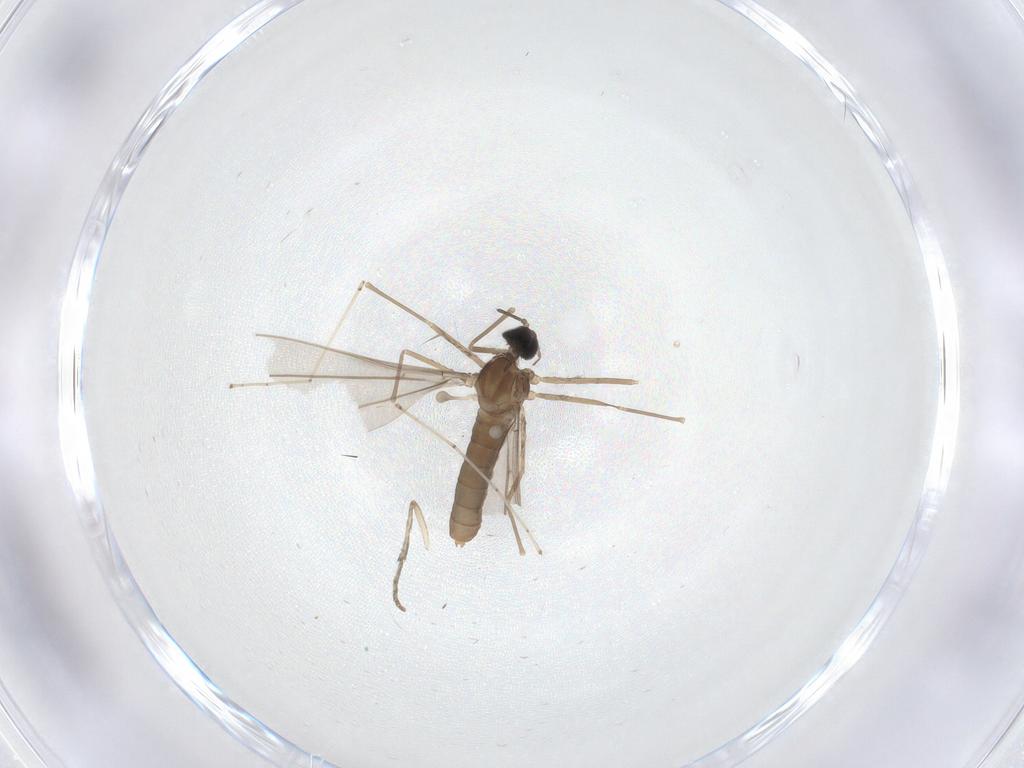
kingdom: Animalia
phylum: Arthropoda
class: Insecta
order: Diptera
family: Cecidomyiidae
